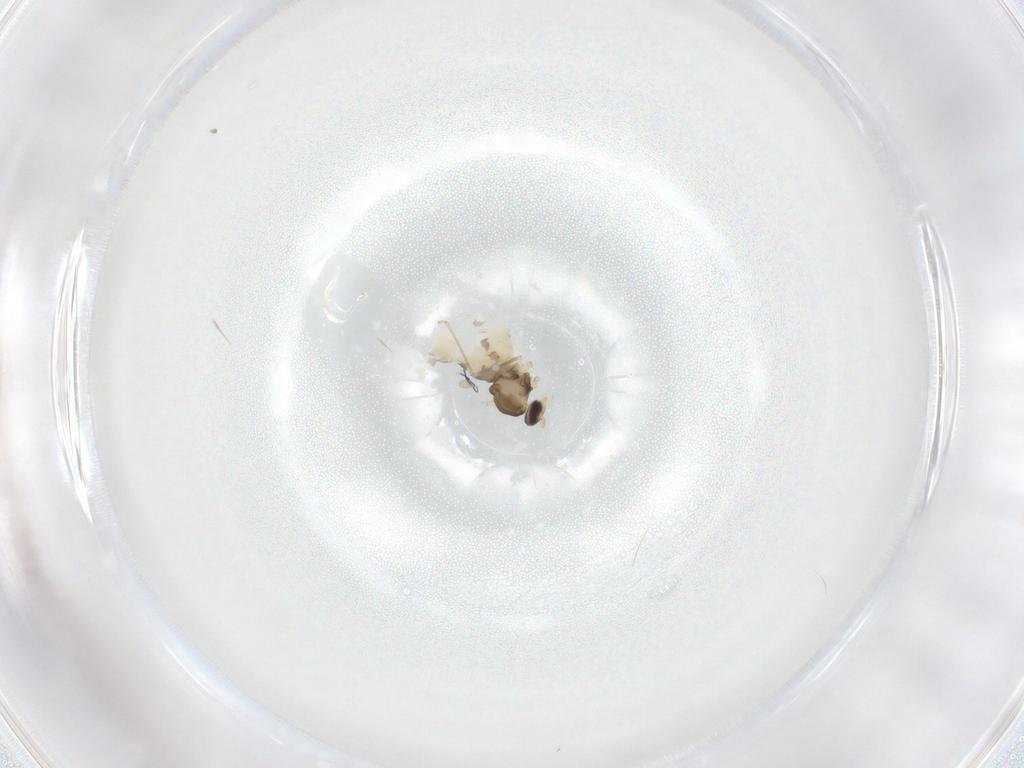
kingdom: Animalia
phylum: Arthropoda
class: Insecta
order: Diptera
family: Cecidomyiidae
